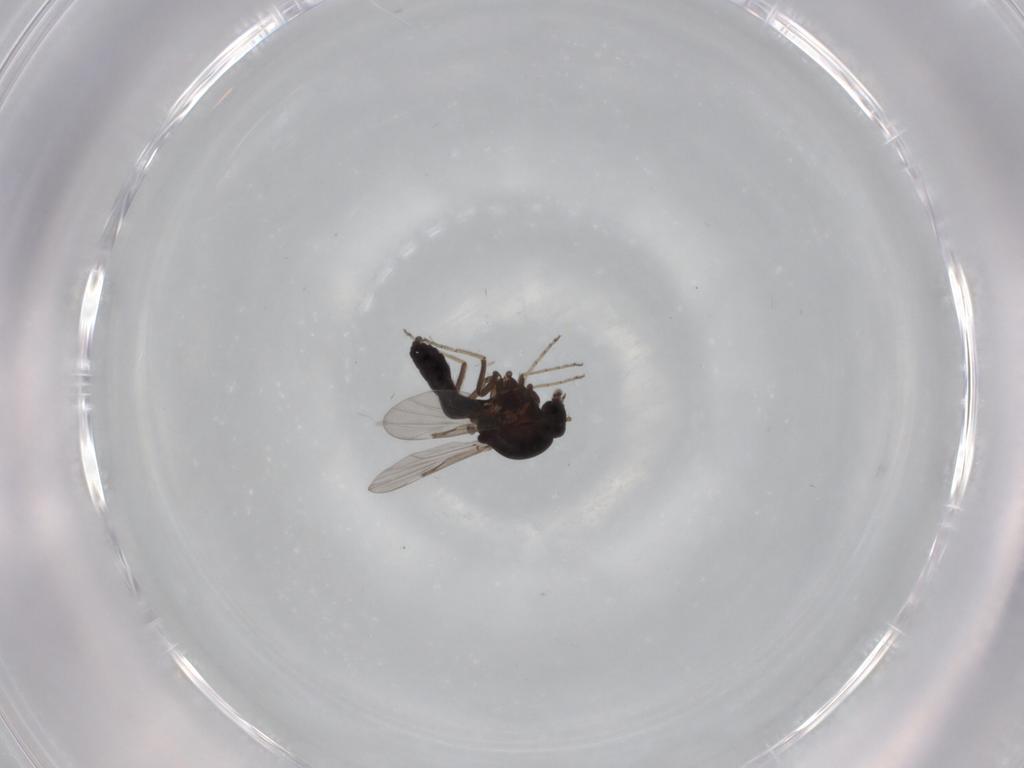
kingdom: Animalia
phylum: Arthropoda
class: Insecta
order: Diptera
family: Ceratopogonidae
